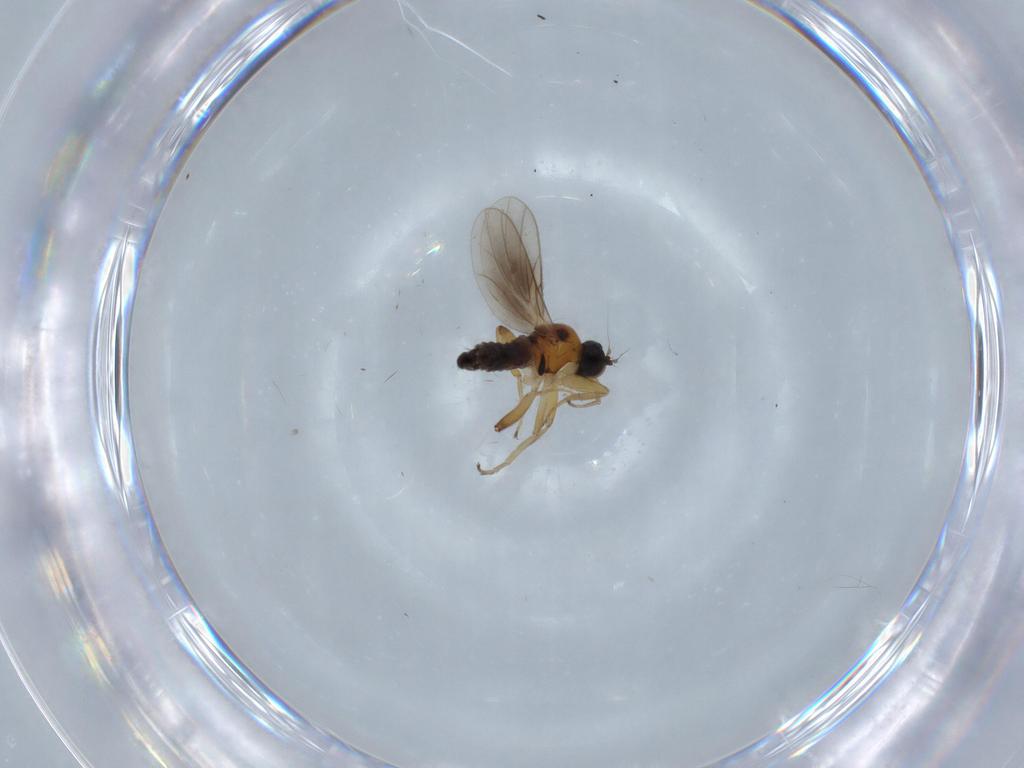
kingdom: Animalia
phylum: Arthropoda
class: Insecta
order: Diptera
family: Hybotidae
